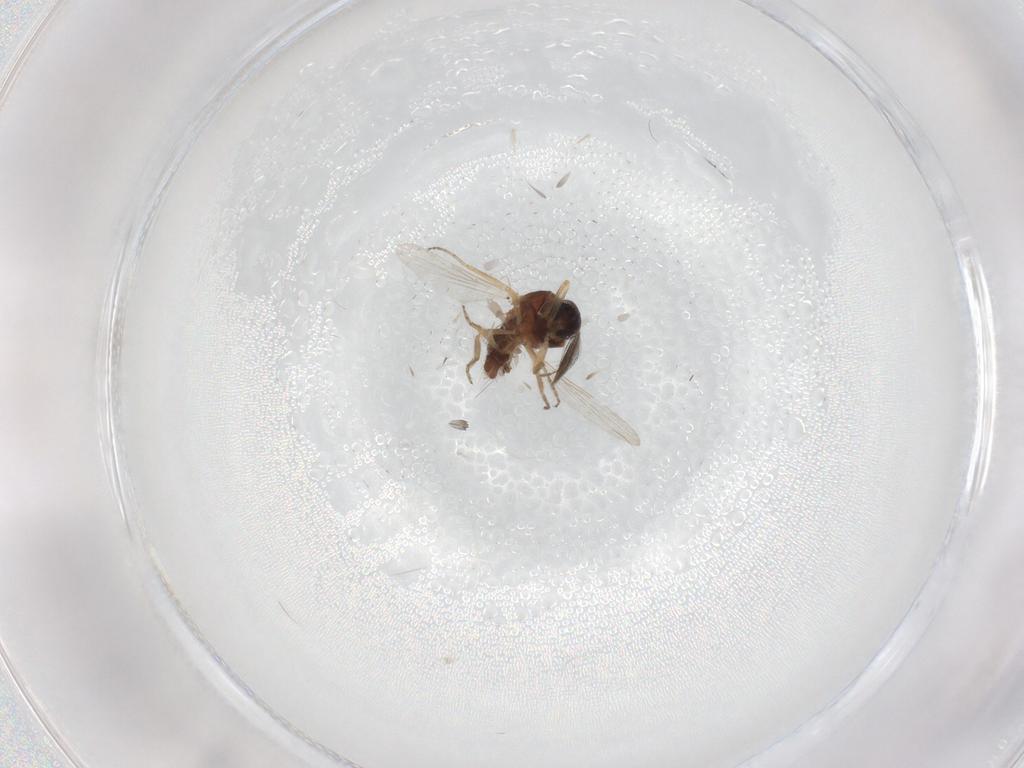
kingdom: Animalia
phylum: Arthropoda
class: Insecta
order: Diptera
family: Ceratopogonidae
